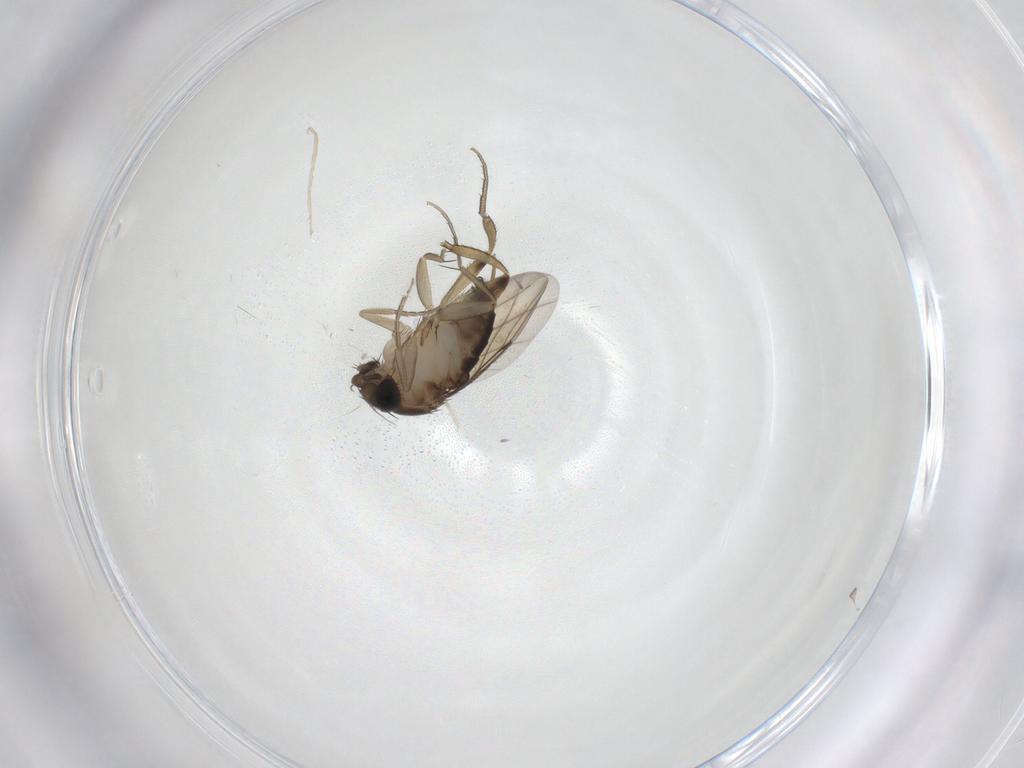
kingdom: Animalia
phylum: Arthropoda
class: Insecta
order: Diptera
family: Phoridae
